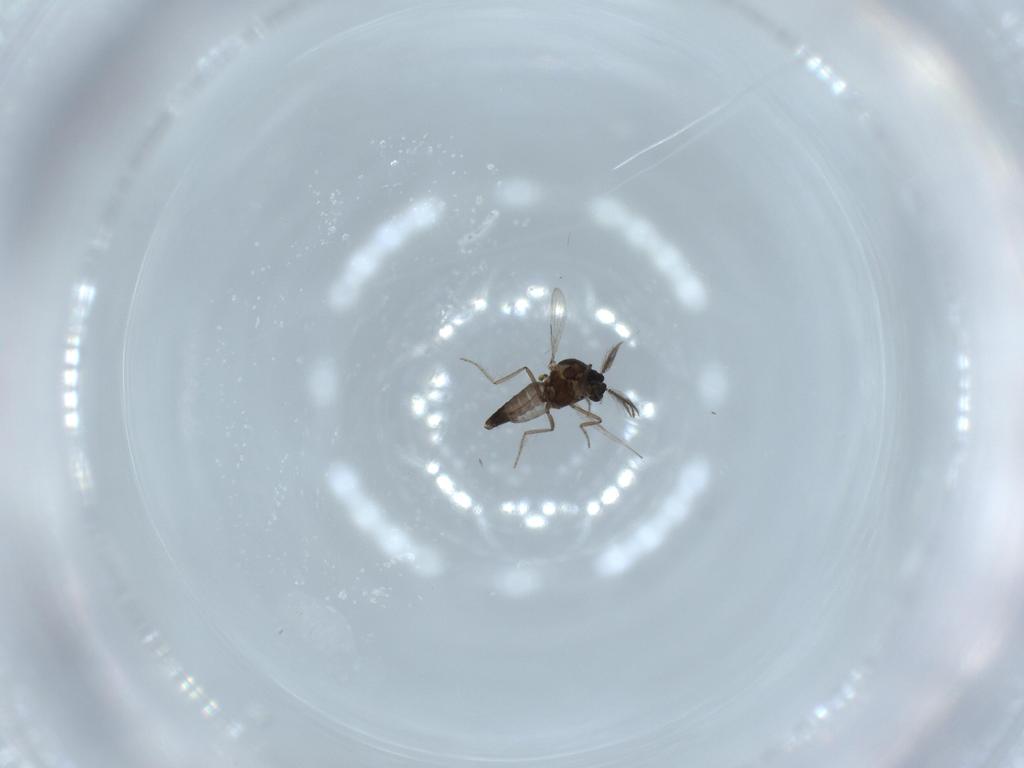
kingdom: Animalia
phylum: Arthropoda
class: Insecta
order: Diptera
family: Ceratopogonidae
